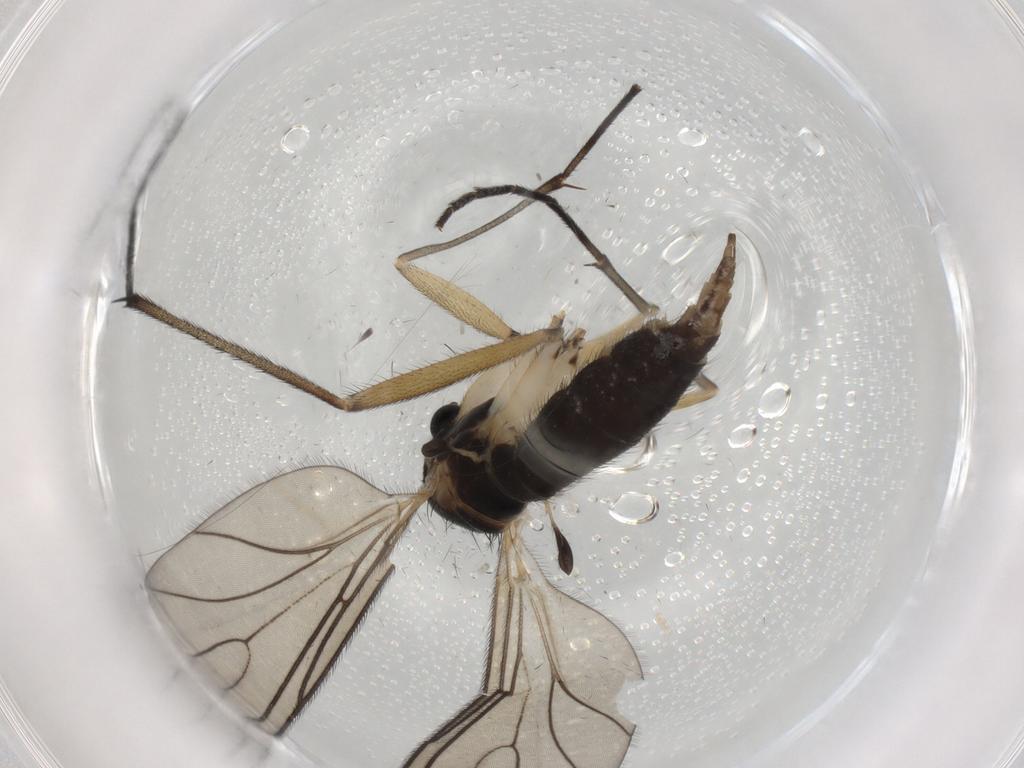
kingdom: Animalia
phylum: Arthropoda
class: Insecta
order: Diptera
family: Sciaridae
